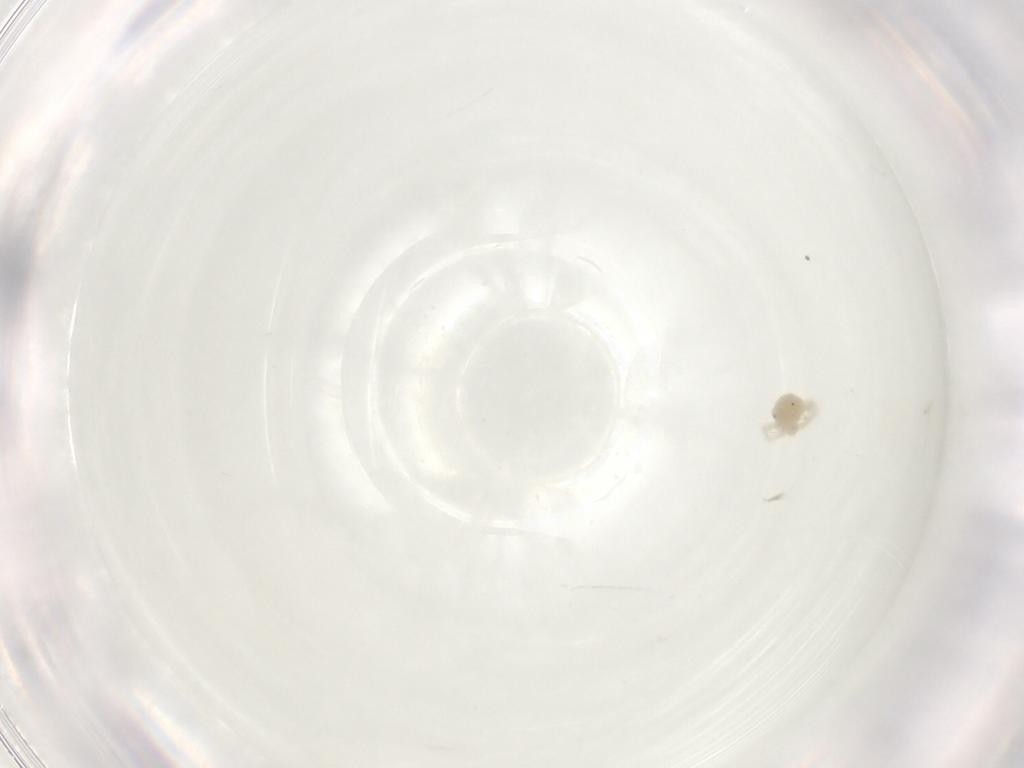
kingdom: Animalia
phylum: Arthropoda
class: Arachnida
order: Trombidiformes
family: Anystidae
